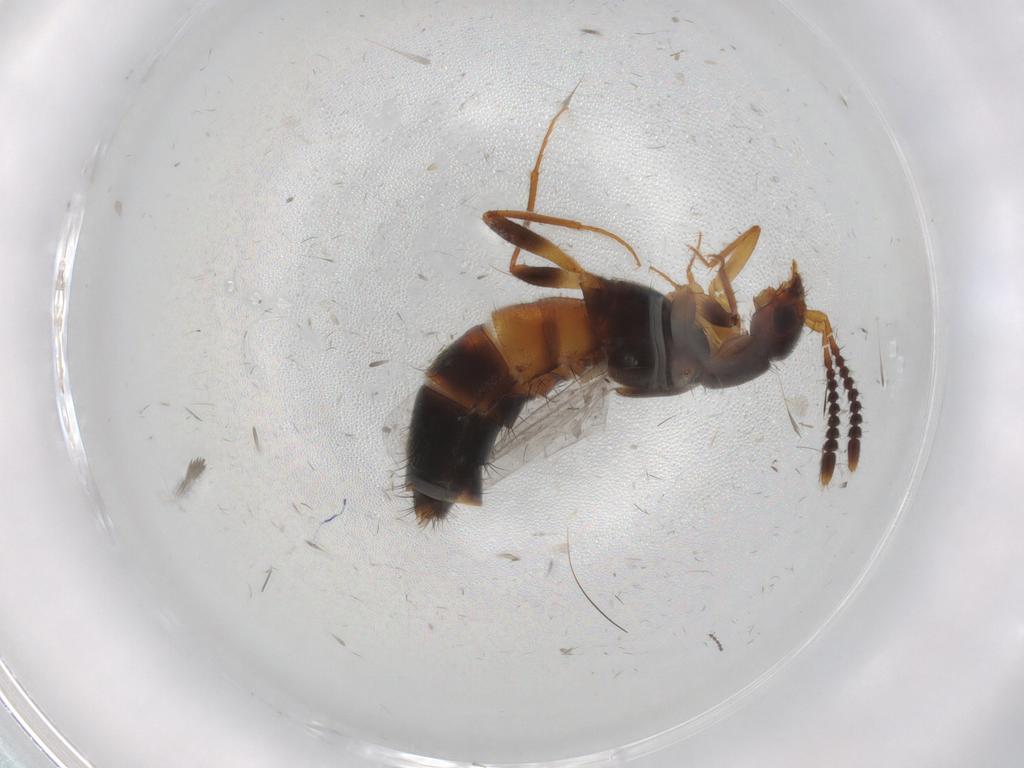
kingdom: Animalia
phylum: Arthropoda
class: Insecta
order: Coleoptera
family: Staphylinidae
